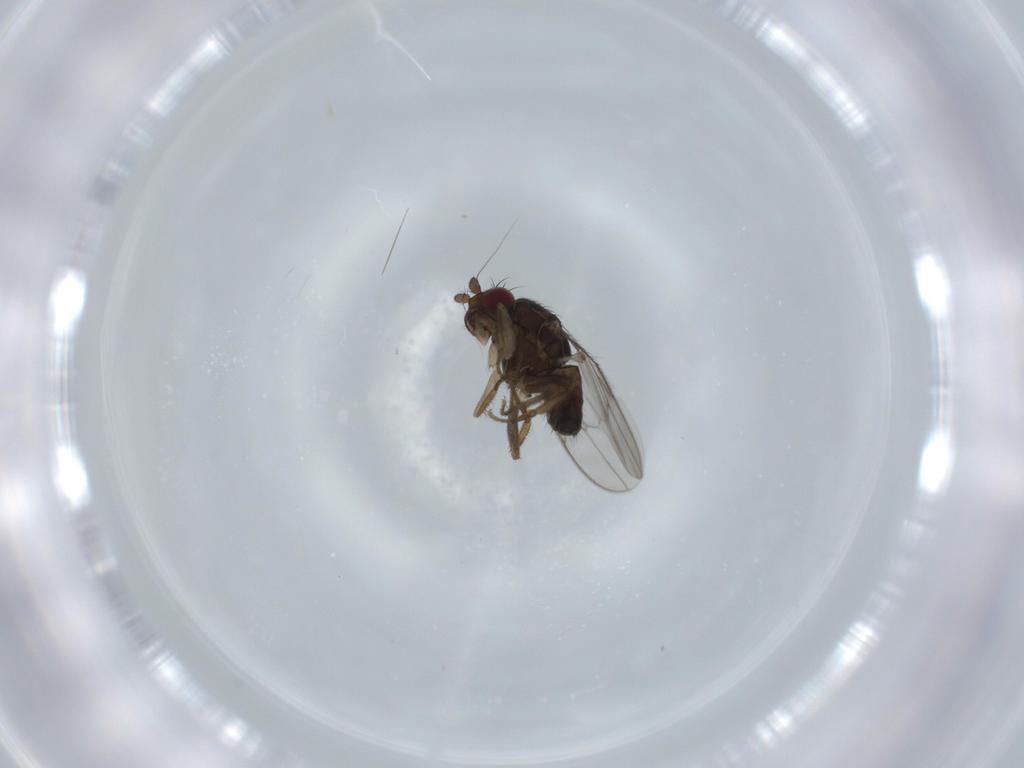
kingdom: Animalia
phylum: Arthropoda
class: Insecta
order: Diptera
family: Sphaeroceridae
